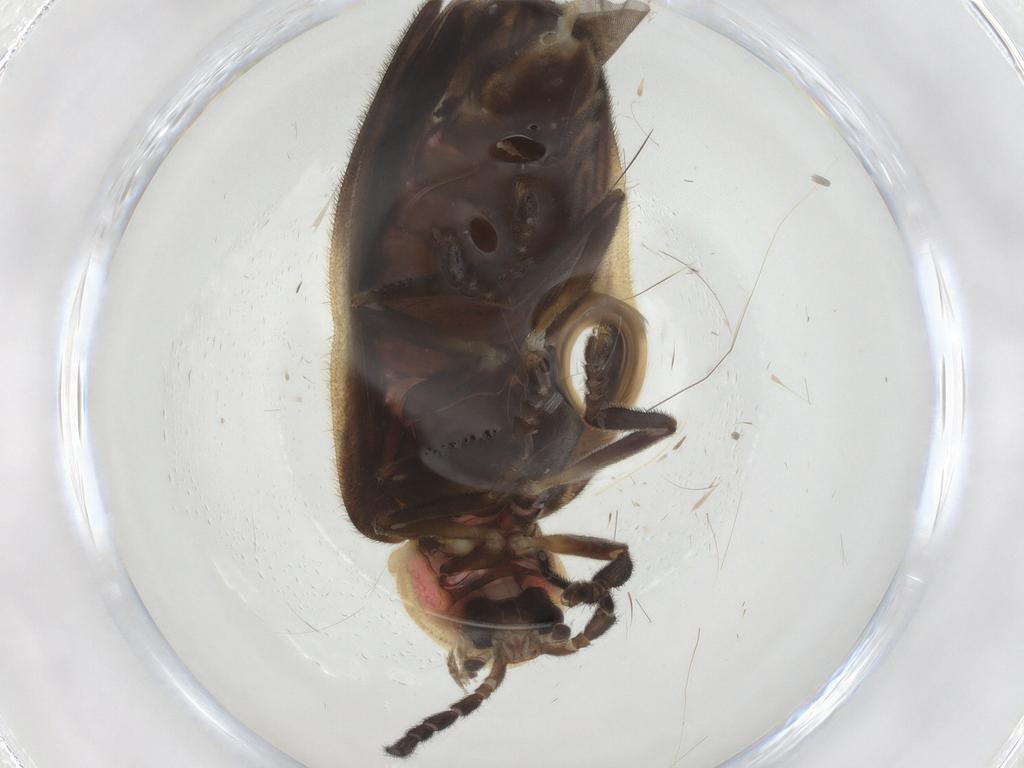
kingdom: Animalia
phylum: Arthropoda
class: Insecta
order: Coleoptera
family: Lampyridae
